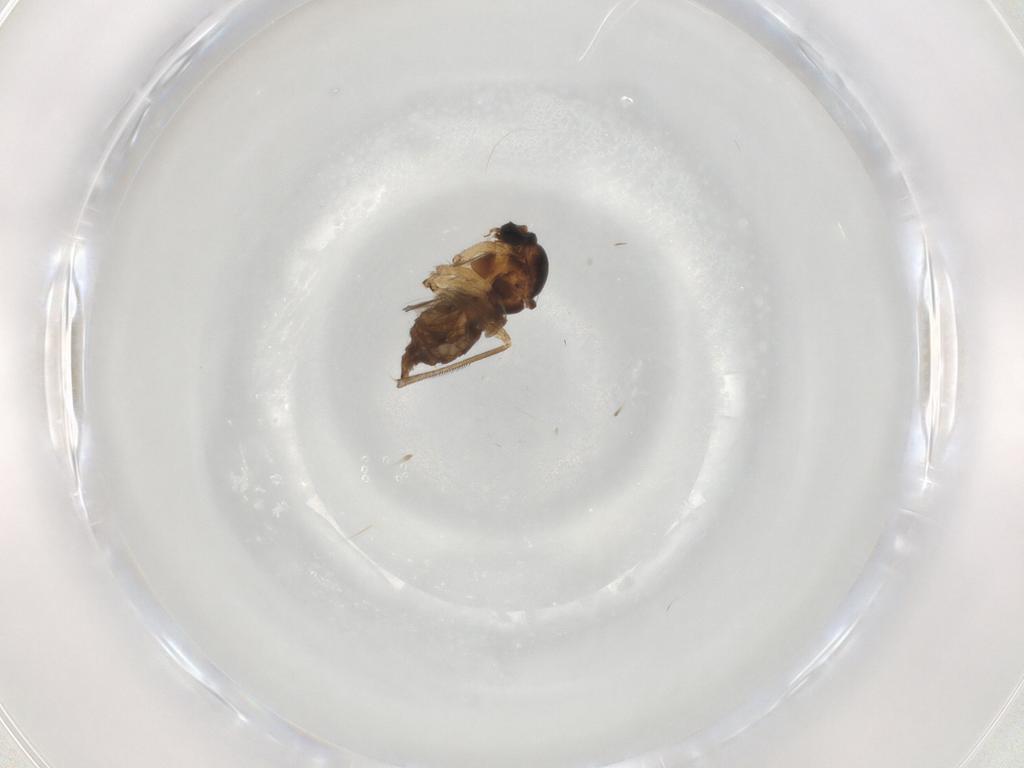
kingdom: Animalia
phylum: Arthropoda
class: Insecta
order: Diptera
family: Sciaridae
